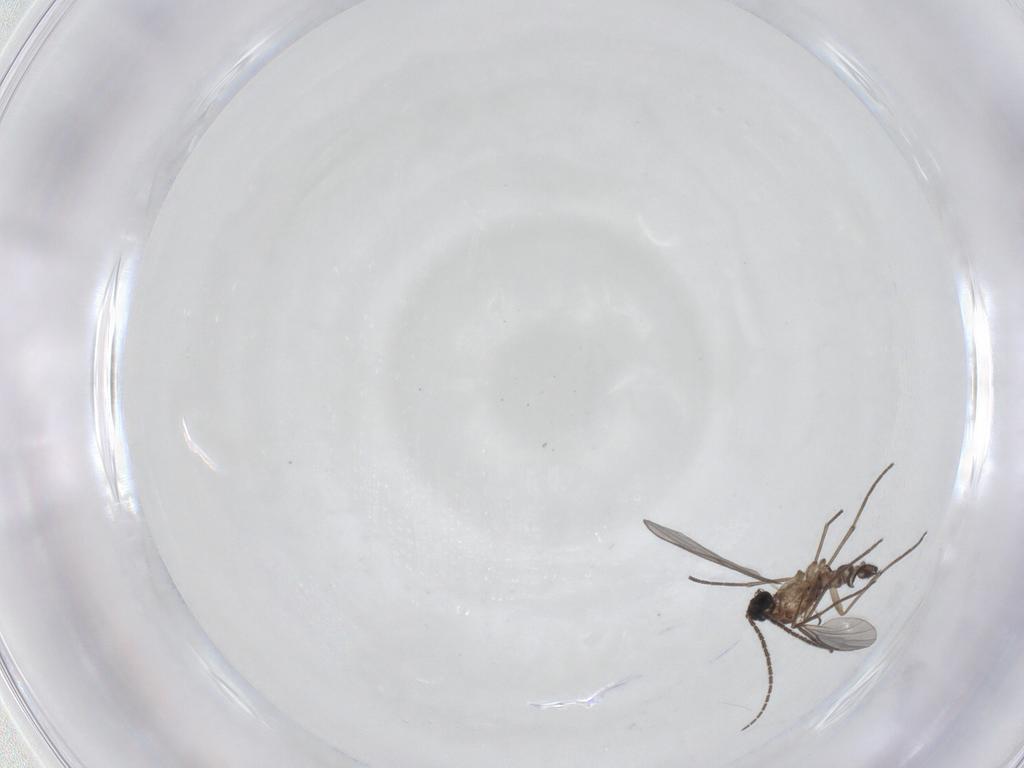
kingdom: Animalia
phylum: Arthropoda
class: Insecta
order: Diptera
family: Sciaridae
